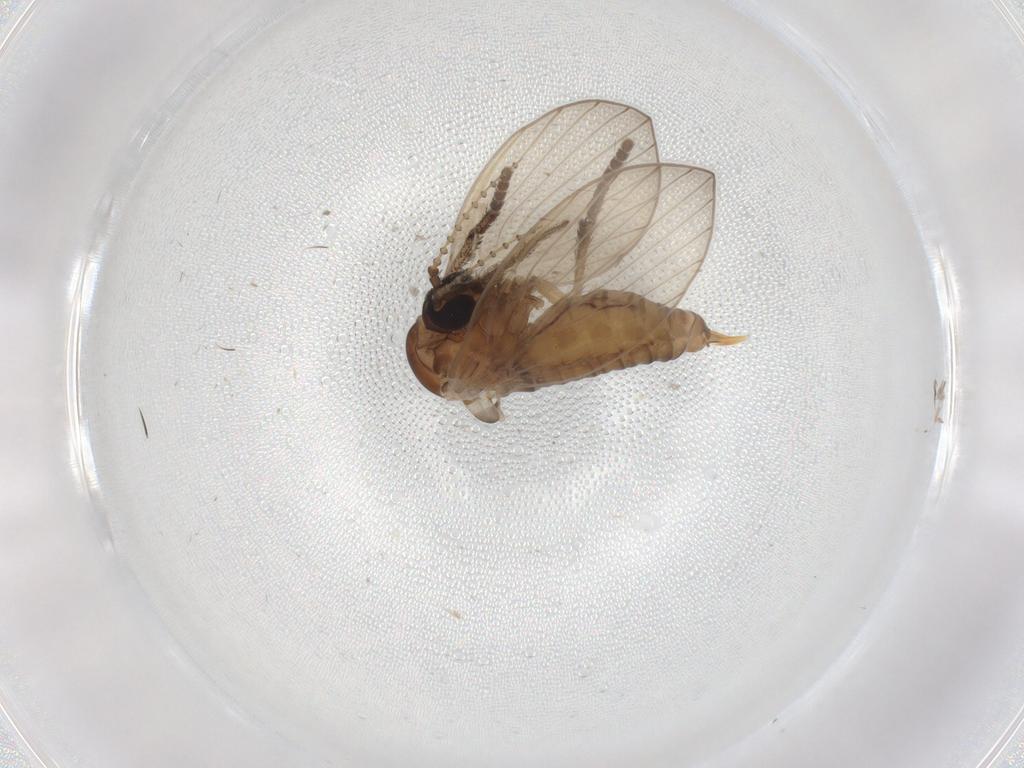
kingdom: Animalia
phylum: Arthropoda
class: Insecta
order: Diptera
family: Psychodidae
